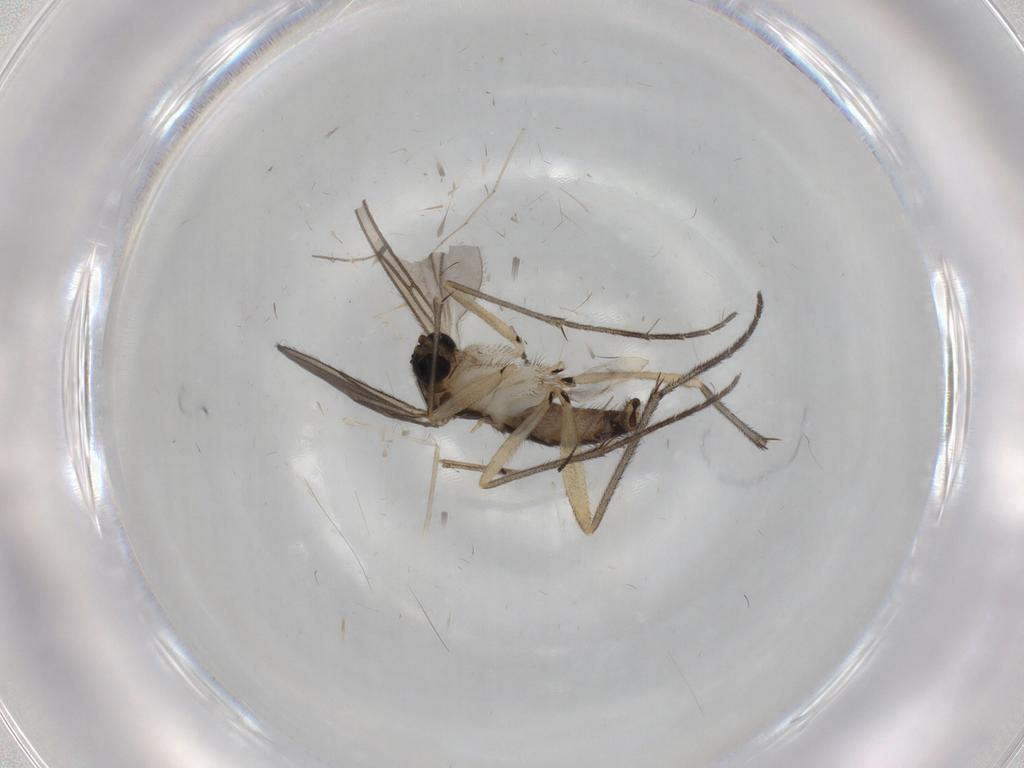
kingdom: Animalia
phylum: Arthropoda
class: Insecta
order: Diptera
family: Sciaridae
